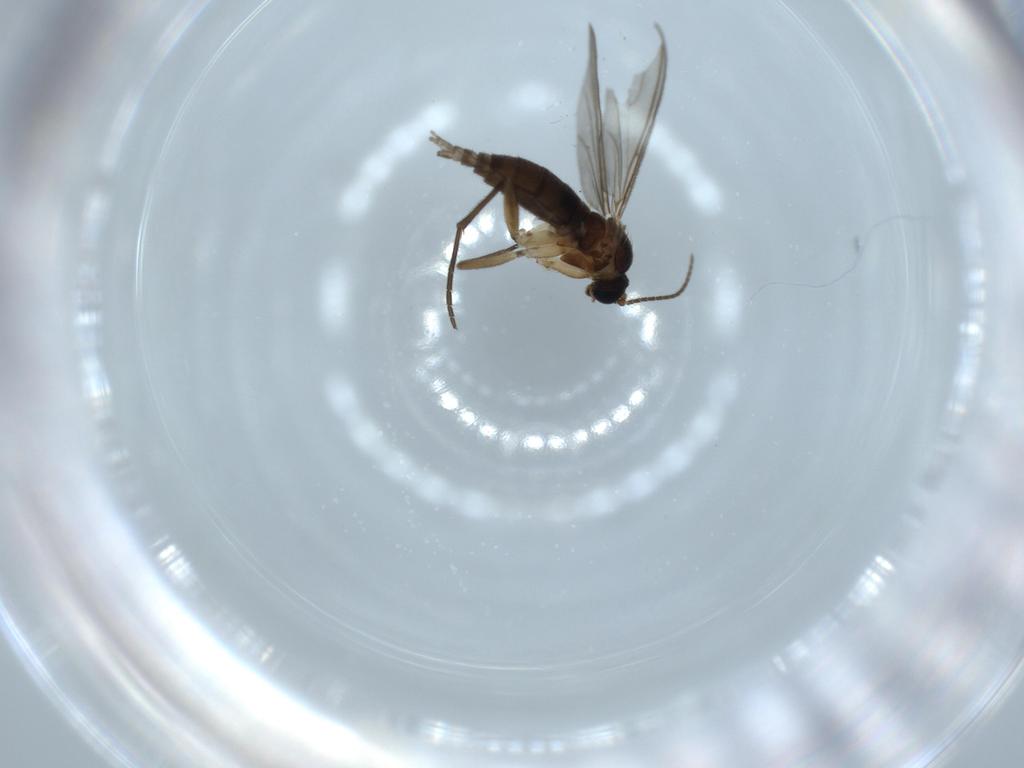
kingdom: Animalia
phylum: Arthropoda
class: Insecta
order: Diptera
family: Sciaridae
